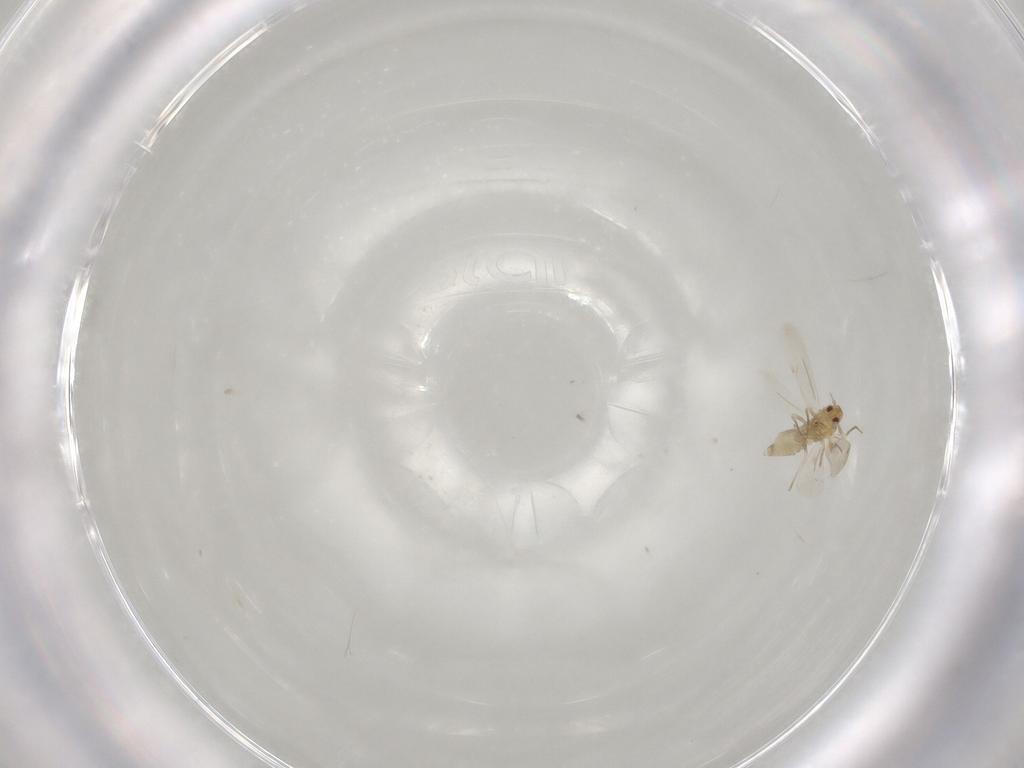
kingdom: Animalia
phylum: Arthropoda
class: Insecta
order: Hemiptera
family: Aleyrodidae
